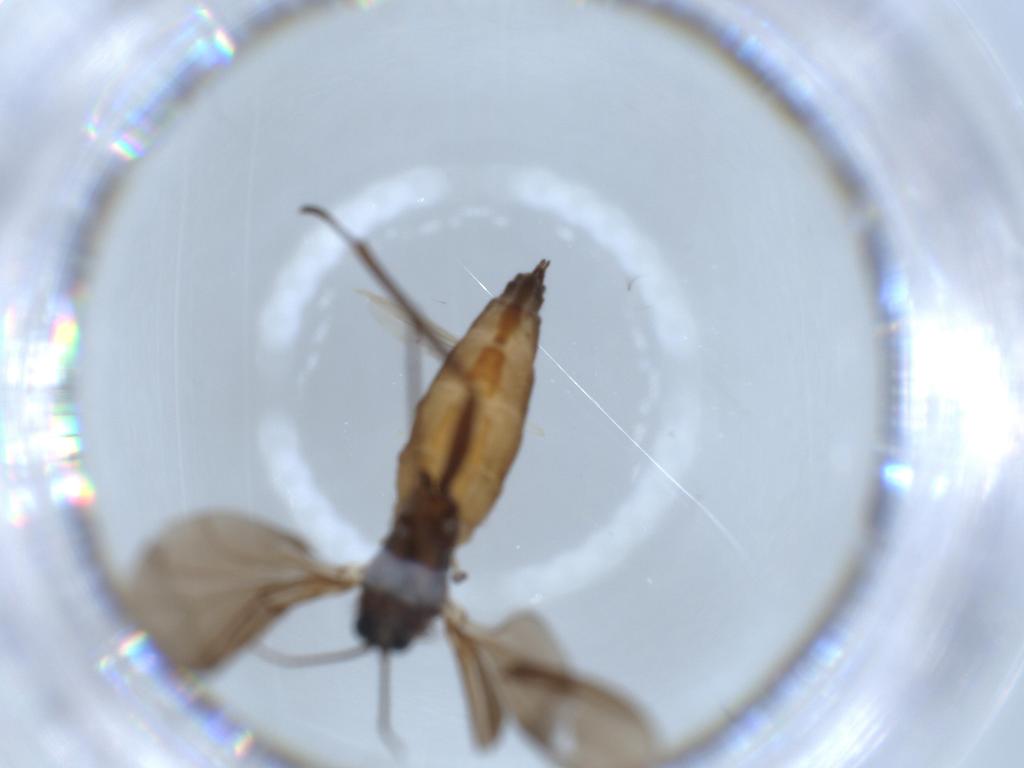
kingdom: Animalia
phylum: Arthropoda
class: Insecta
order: Diptera
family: Sciaridae
